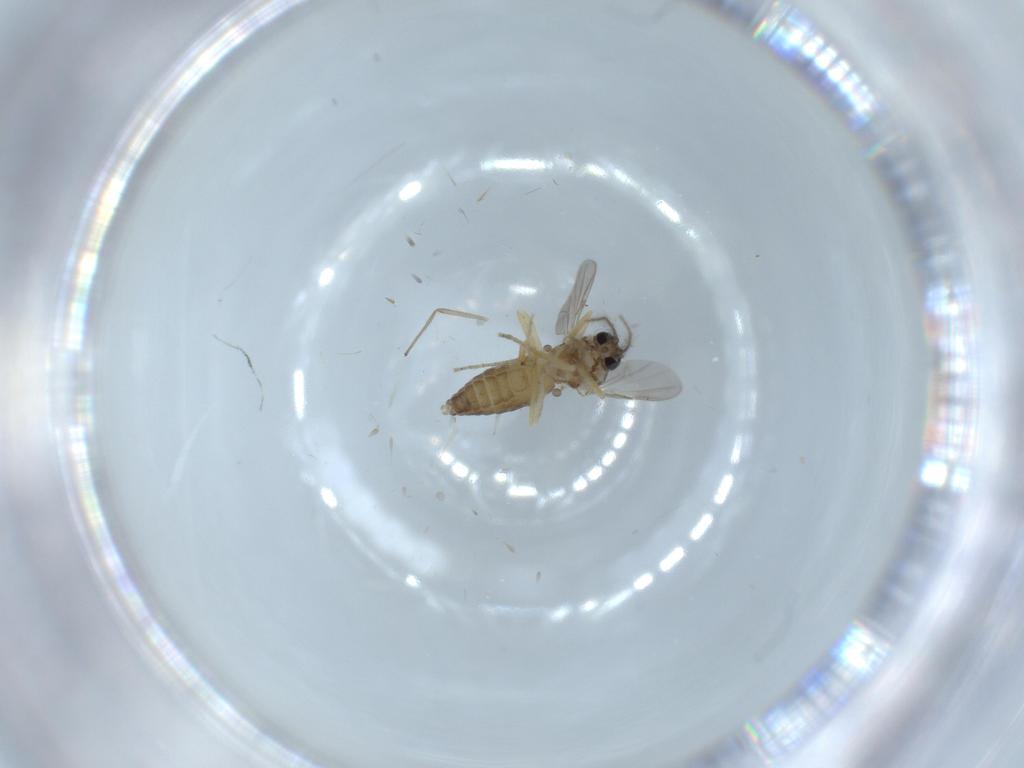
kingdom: Animalia
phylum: Arthropoda
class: Insecta
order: Diptera
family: Ceratopogonidae
